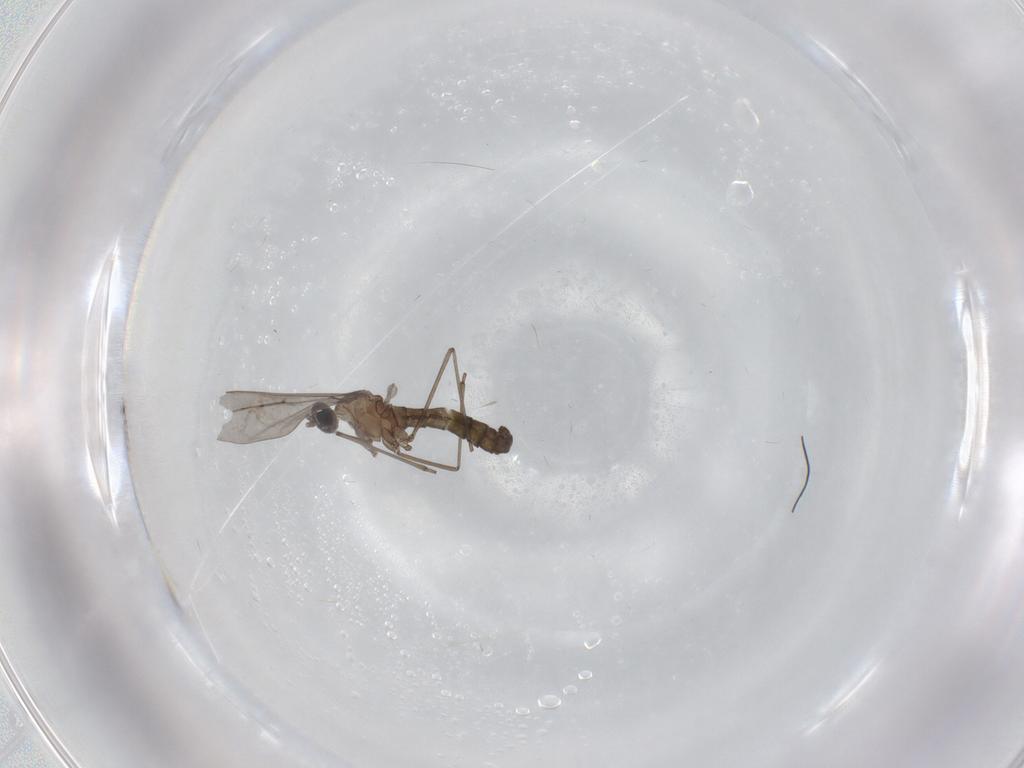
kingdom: Animalia
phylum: Arthropoda
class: Insecta
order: Diptera
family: Cecidomyiidae
